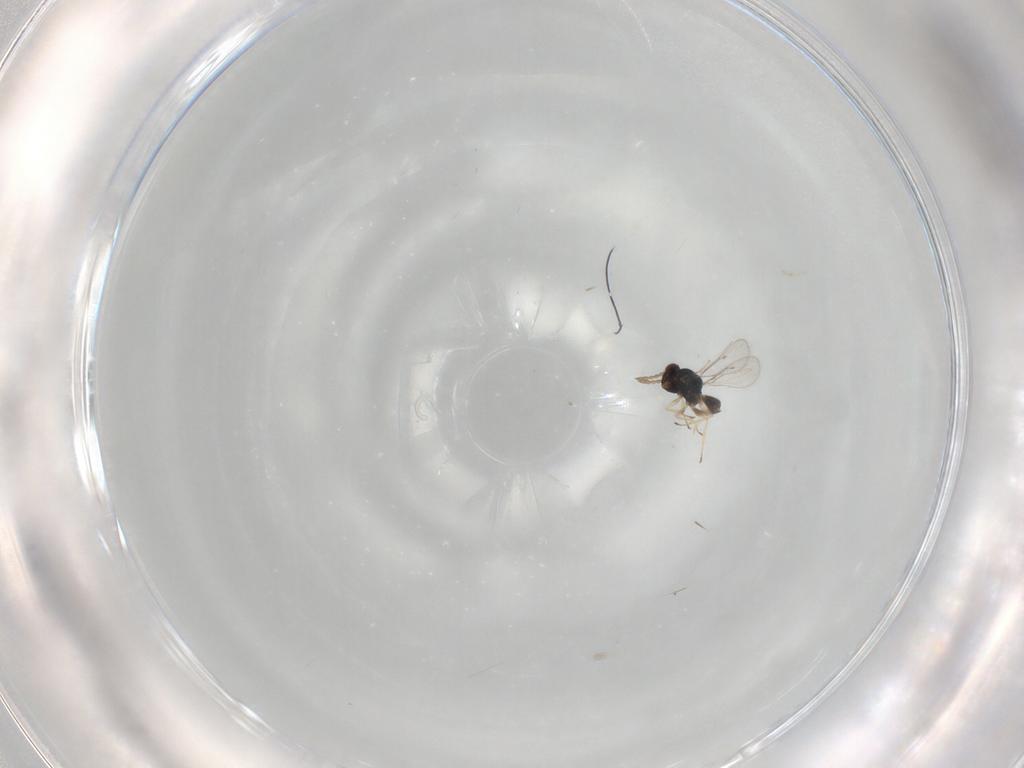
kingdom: Animalia
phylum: Arthropoda
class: Insecta
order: Hymenoptera
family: Eulophidae
